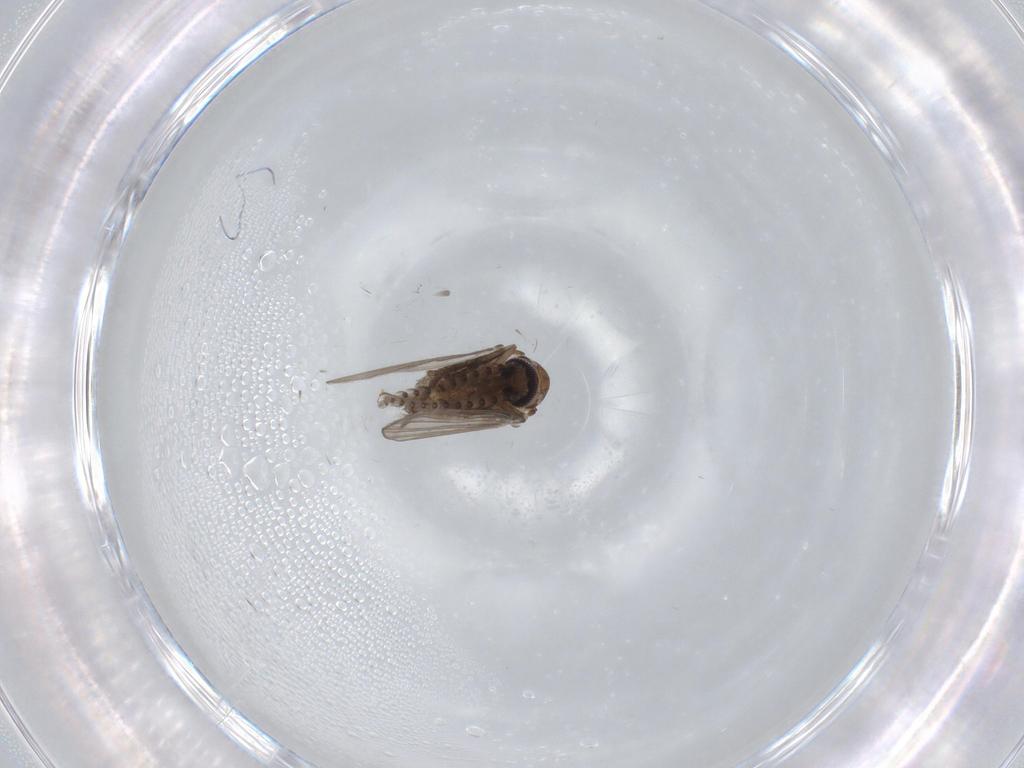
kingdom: Animalia
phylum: Arthropoda
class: Insecta
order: Diptera
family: Psychodidae
